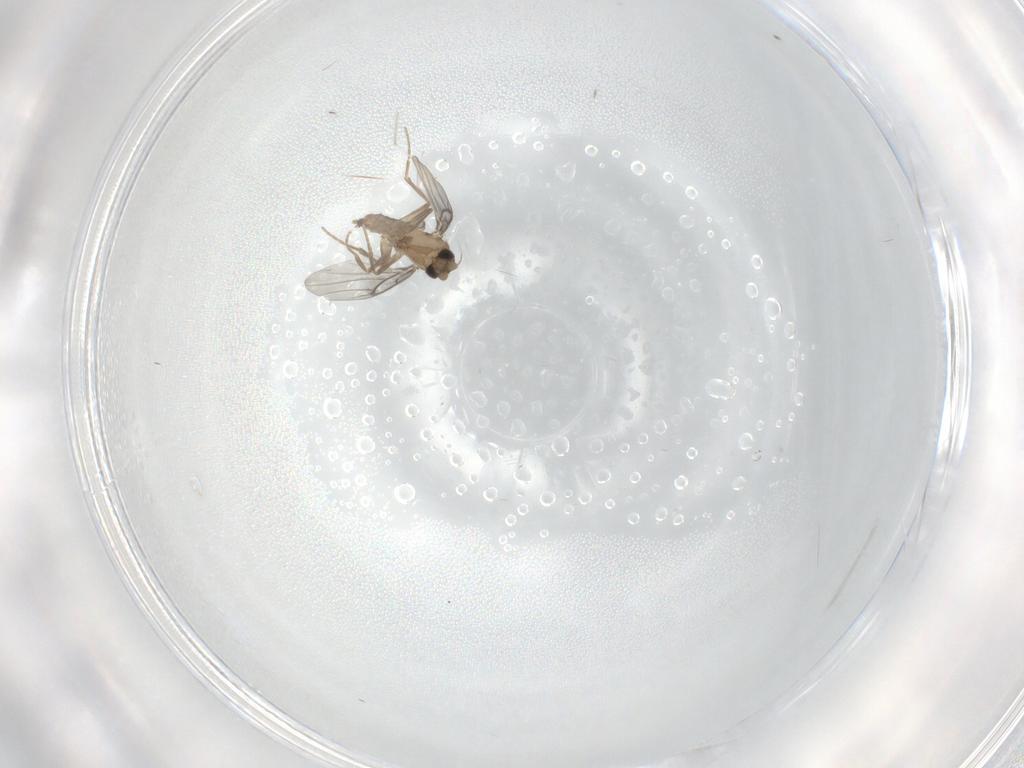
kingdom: Animalia
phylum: Arthropoda
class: Insecta
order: Diptera
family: Cecidomyiidae
